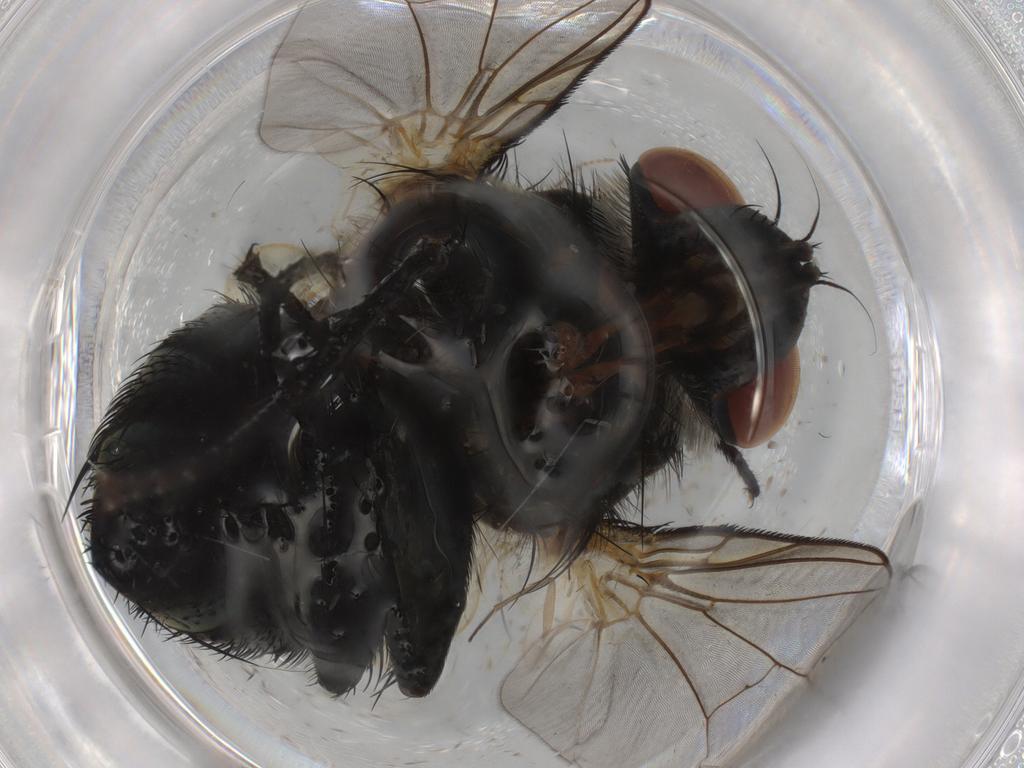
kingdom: Animalia
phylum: Arthropoda
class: Insecta
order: Diptera
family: Tipulidae
